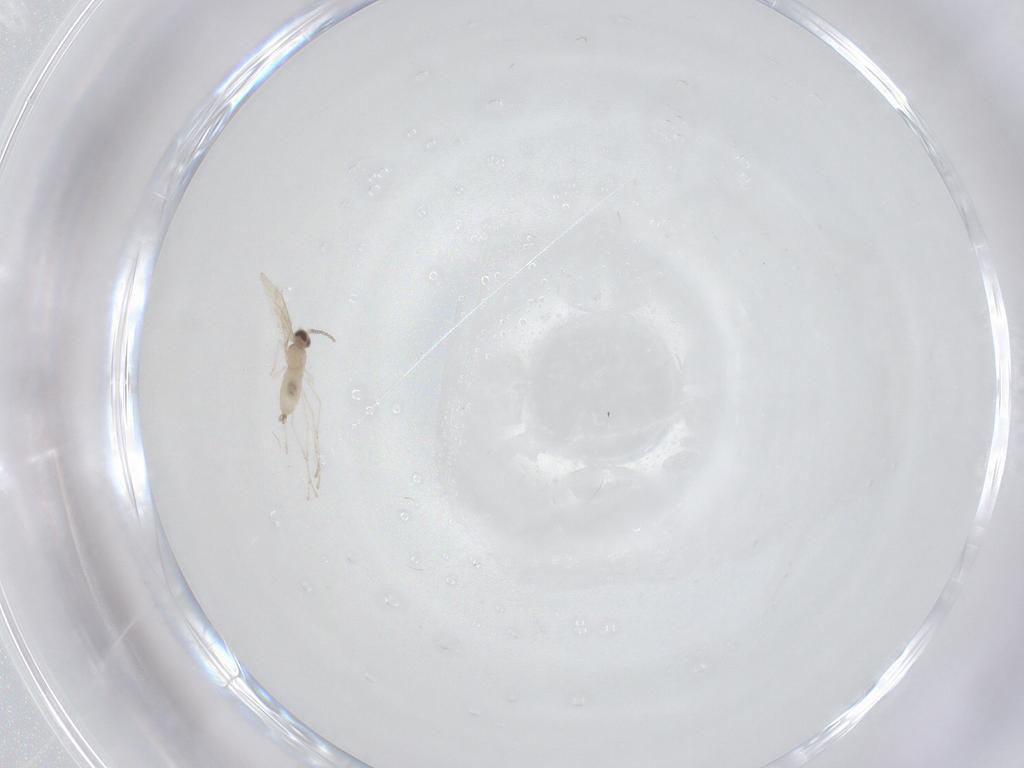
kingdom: Animalia
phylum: Arthropoda
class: Insecta
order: Diptera
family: Cecidomyiidae
